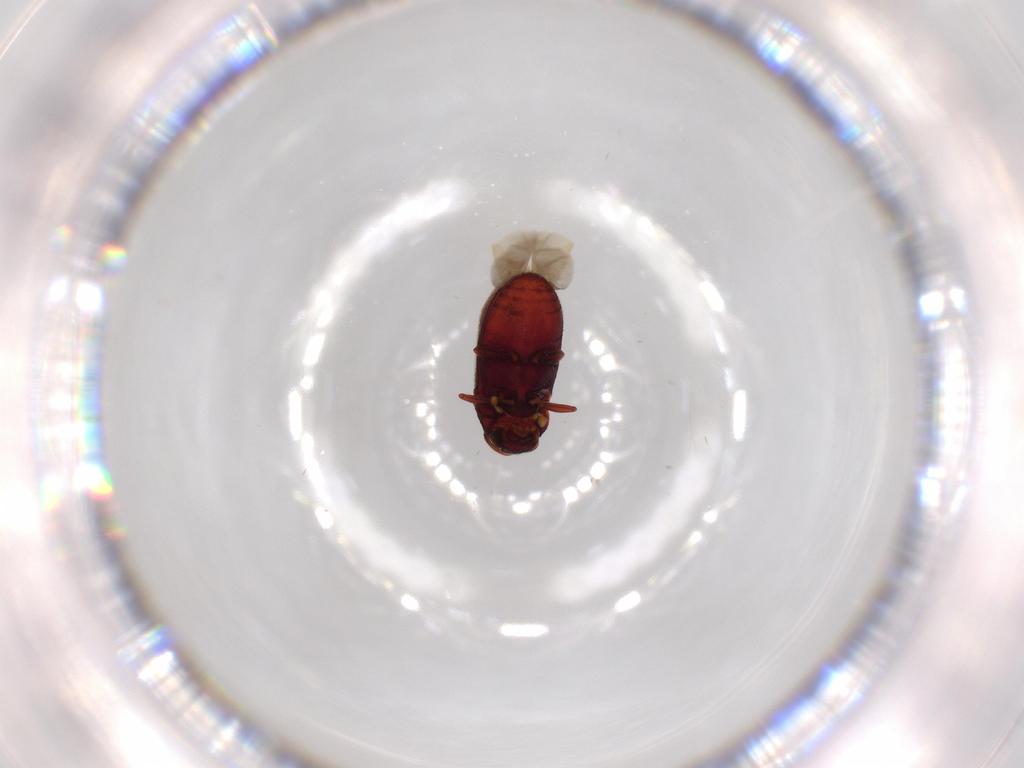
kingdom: Animalia
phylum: Arthropoda
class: Insecta
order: Coleoptera
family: Anobiidae
